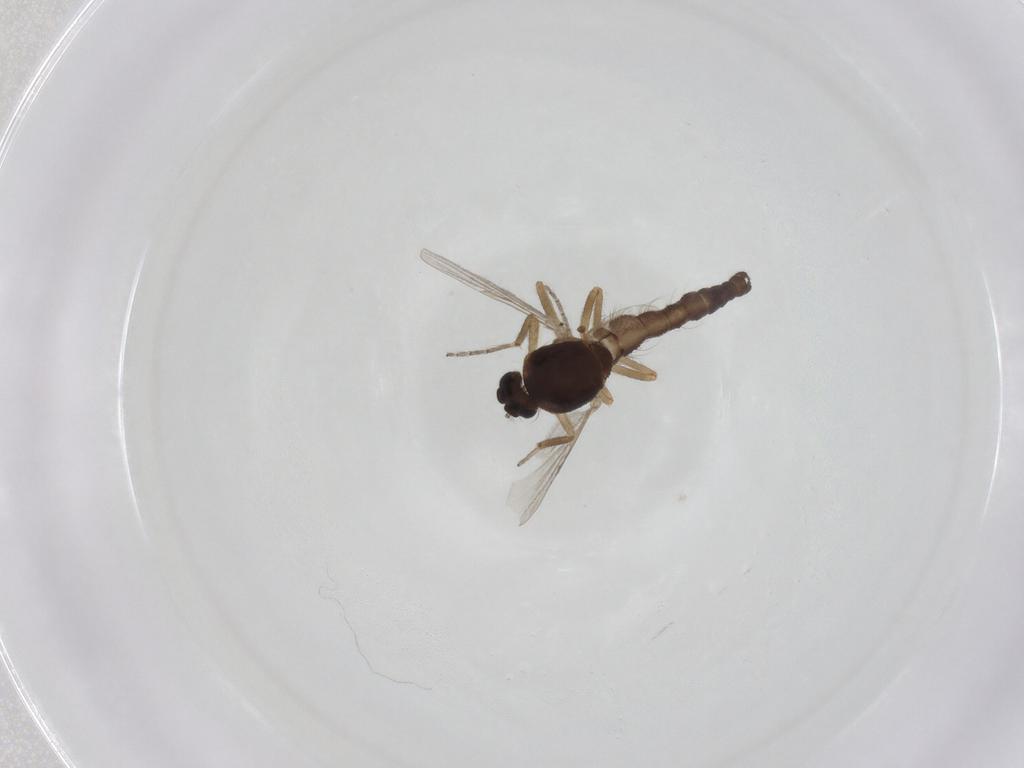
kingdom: Animalia
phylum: Arthropoda
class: Insecta
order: Diptera
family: Ceratopogonidae
